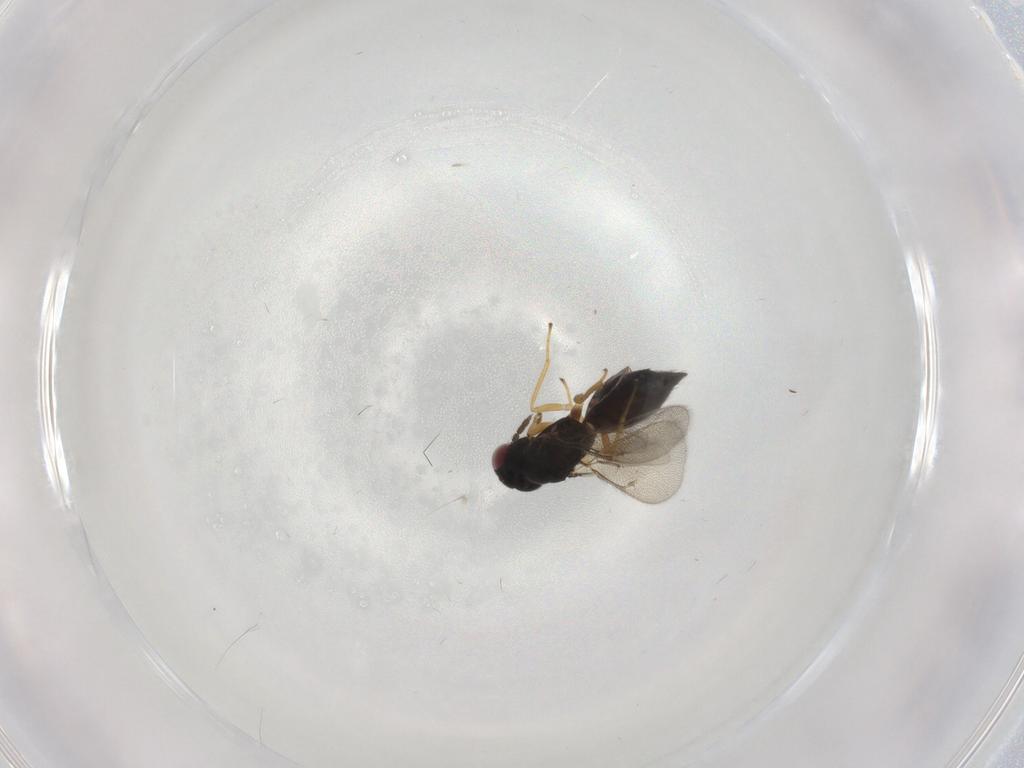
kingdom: Animalia
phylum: Arthropoda
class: Insecta
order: Hymenoptera
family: Eulophidae
